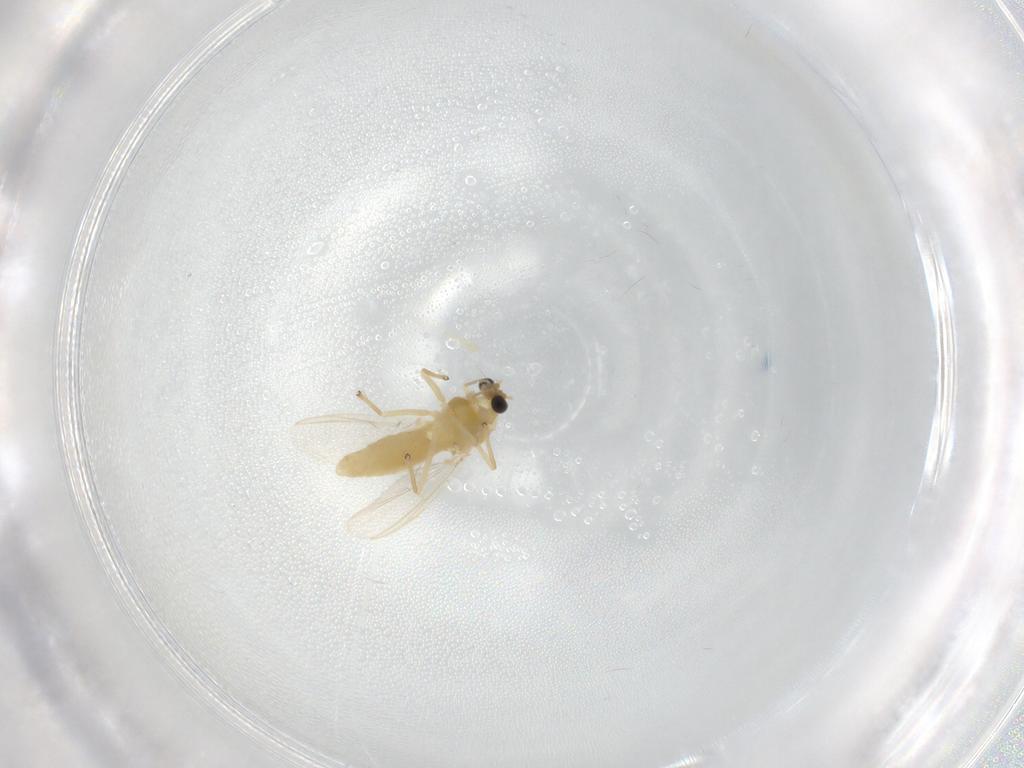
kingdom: Animalia
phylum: Arthropoda
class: Insecta
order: Diptera
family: Chironomidae
